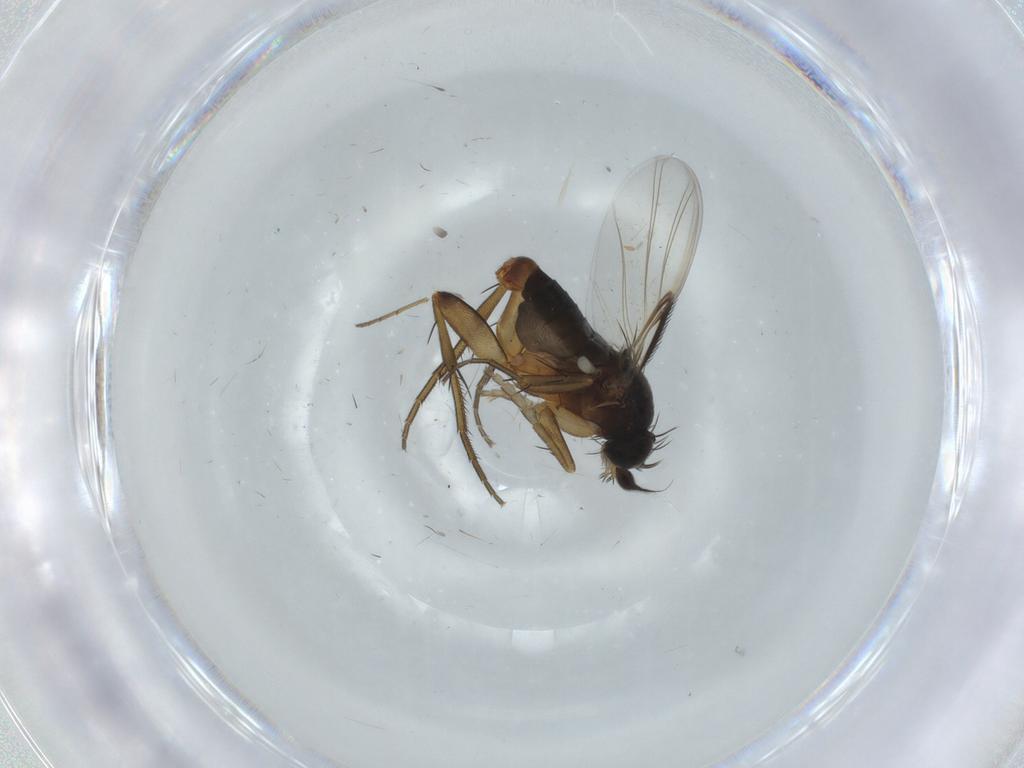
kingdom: Animalia
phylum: Arthropoda
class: Insecta
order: Diptera
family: Phoridae
